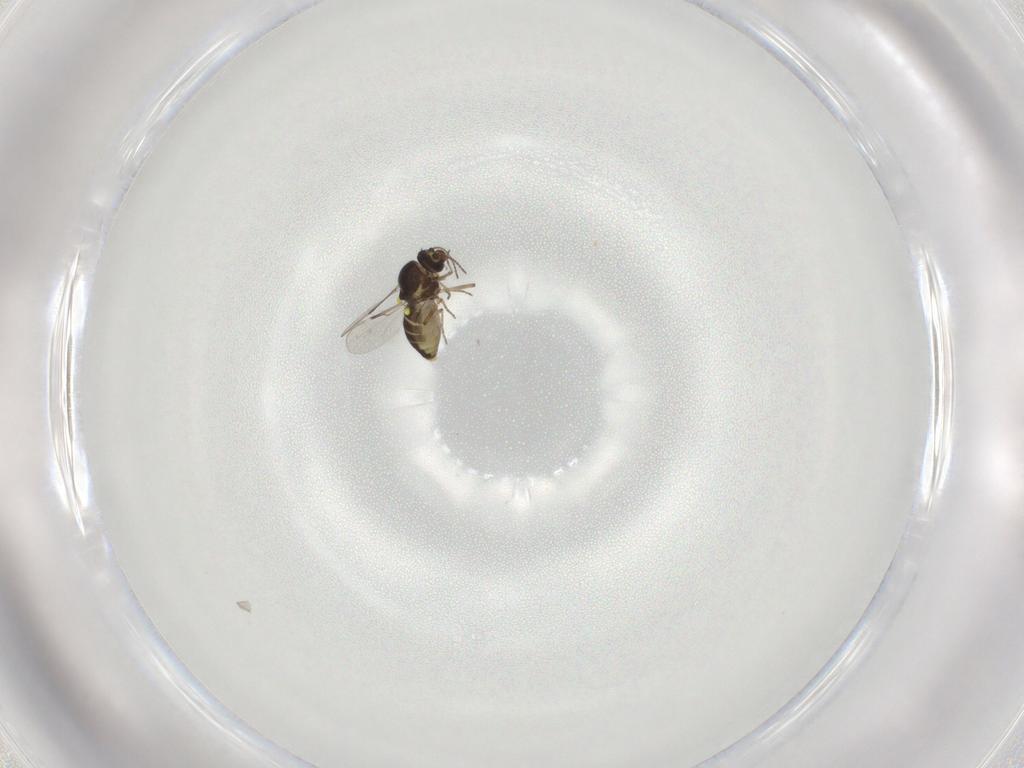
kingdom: Animalia
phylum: Arthropoda
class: Insecta
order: Diptera
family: Ceratopogonidae
